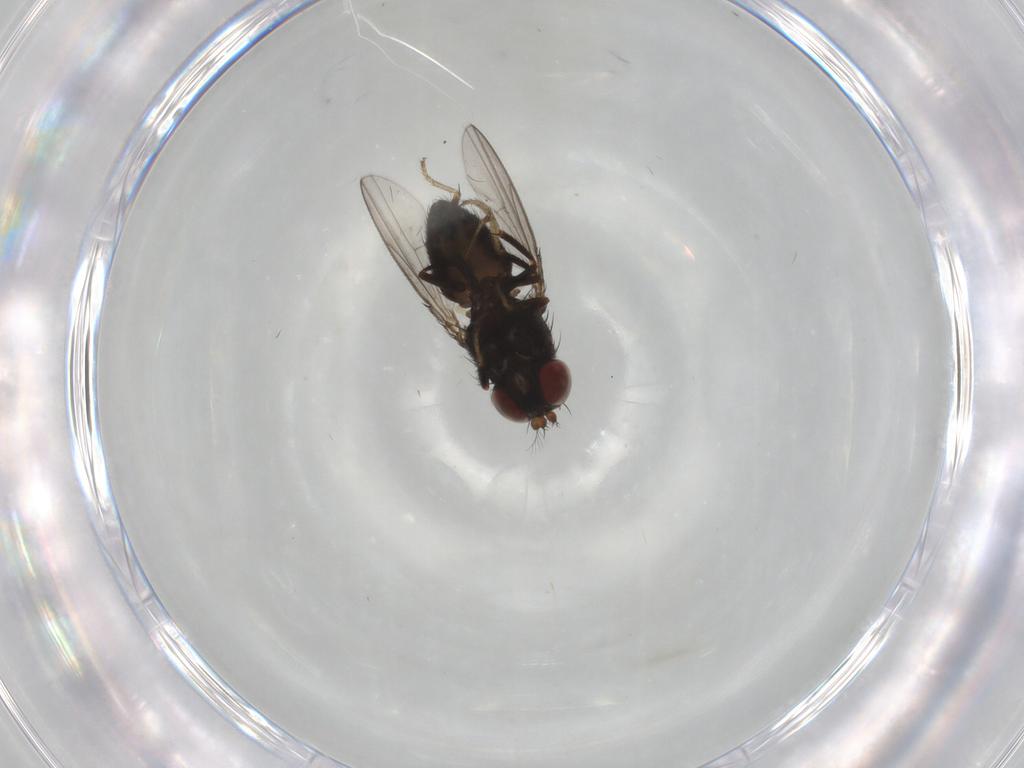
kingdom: Animalia
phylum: Arthropoda
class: Insecta
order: Diptera
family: Ephydridae
